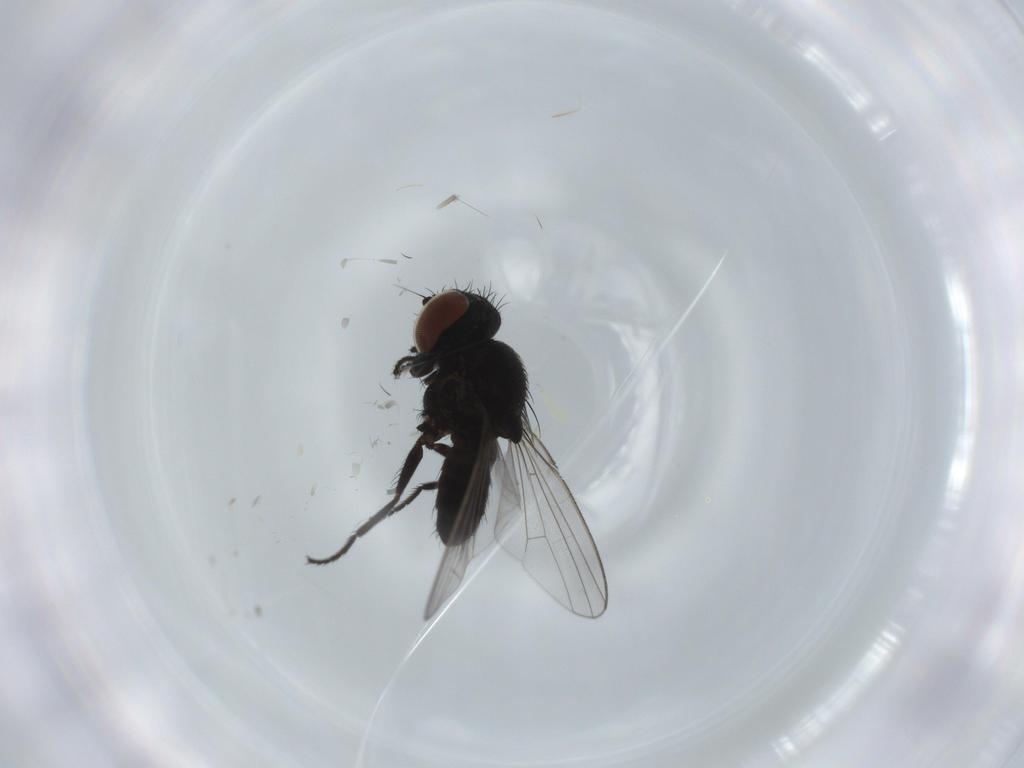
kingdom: Animalia
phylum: Arthropoda
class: Insecta
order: Diptera
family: Milichiidae
